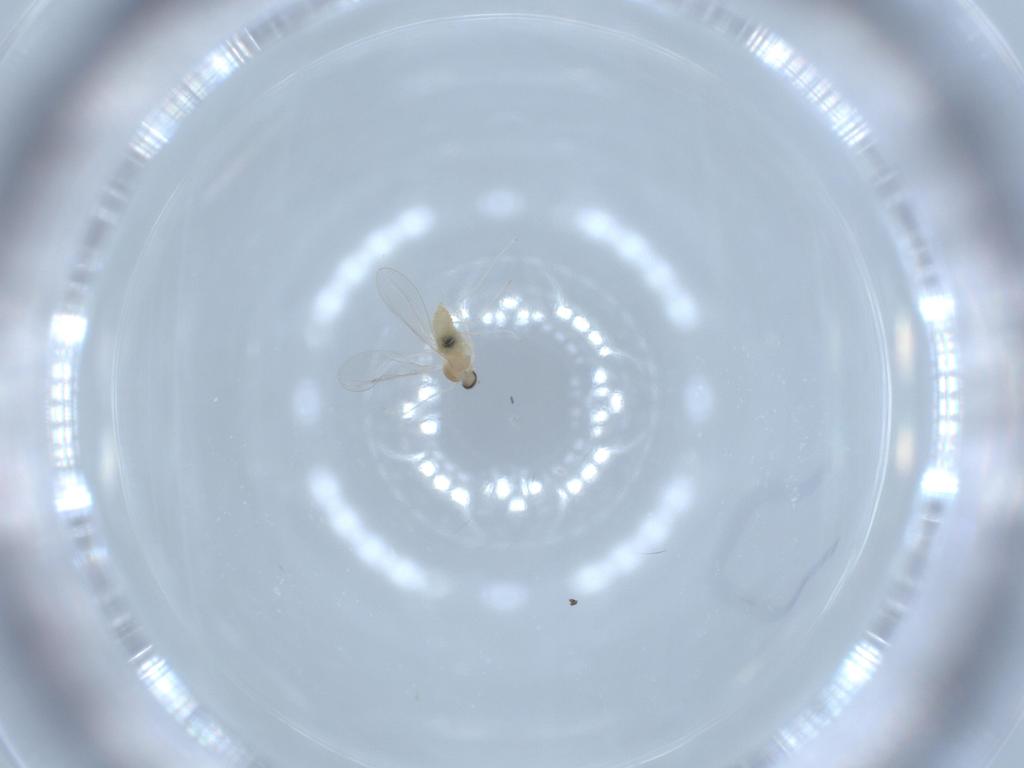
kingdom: Animalia
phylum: Arthropoda
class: Insecta
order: Diptera
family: Cecidomyiidae
